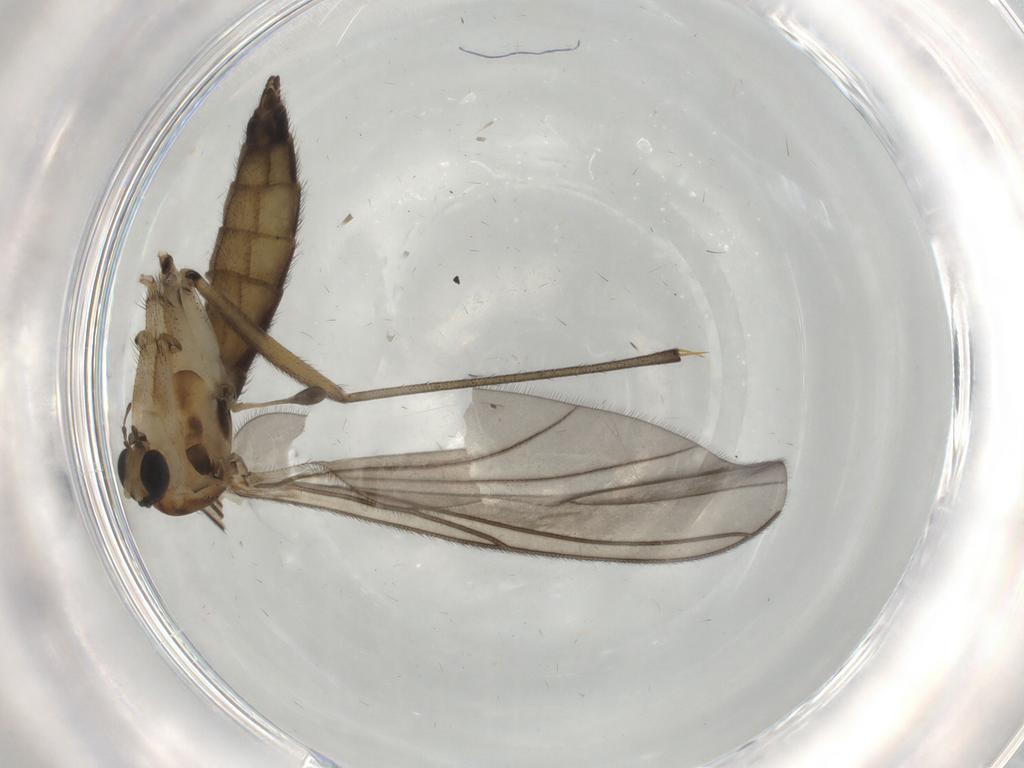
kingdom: Animalia
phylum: Arthropoda
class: Insecta
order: Diptera
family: Sciaridae
